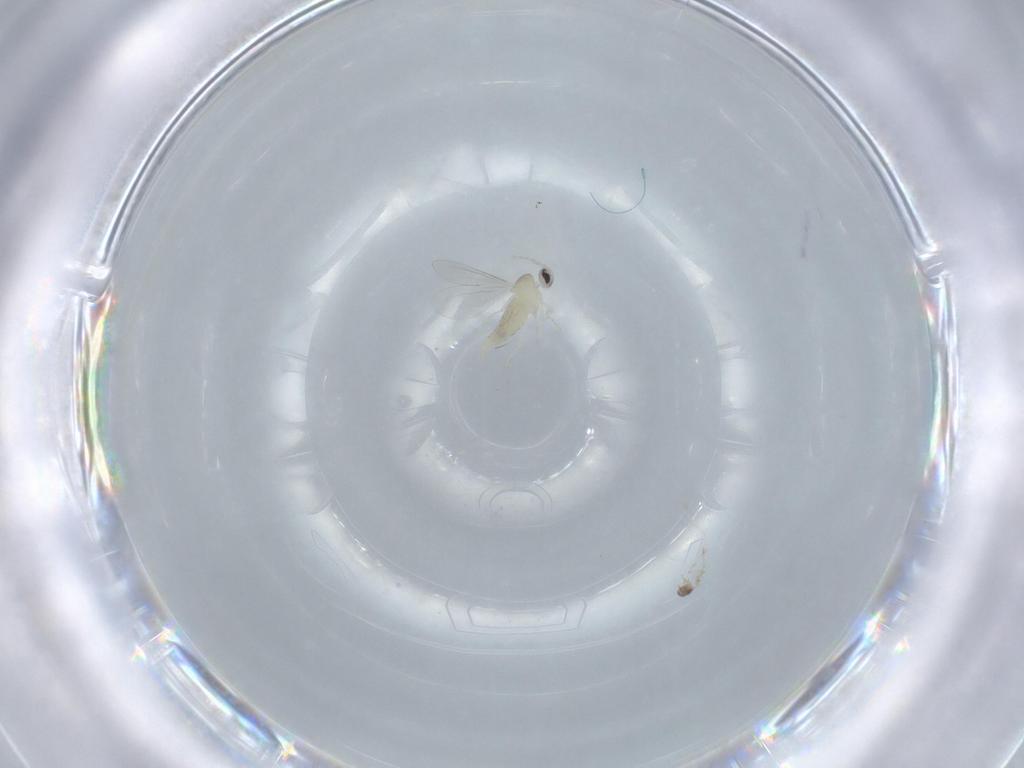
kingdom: Animalia
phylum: Arthropoda
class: Insecta
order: Diptera
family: Cecidomyiidae
